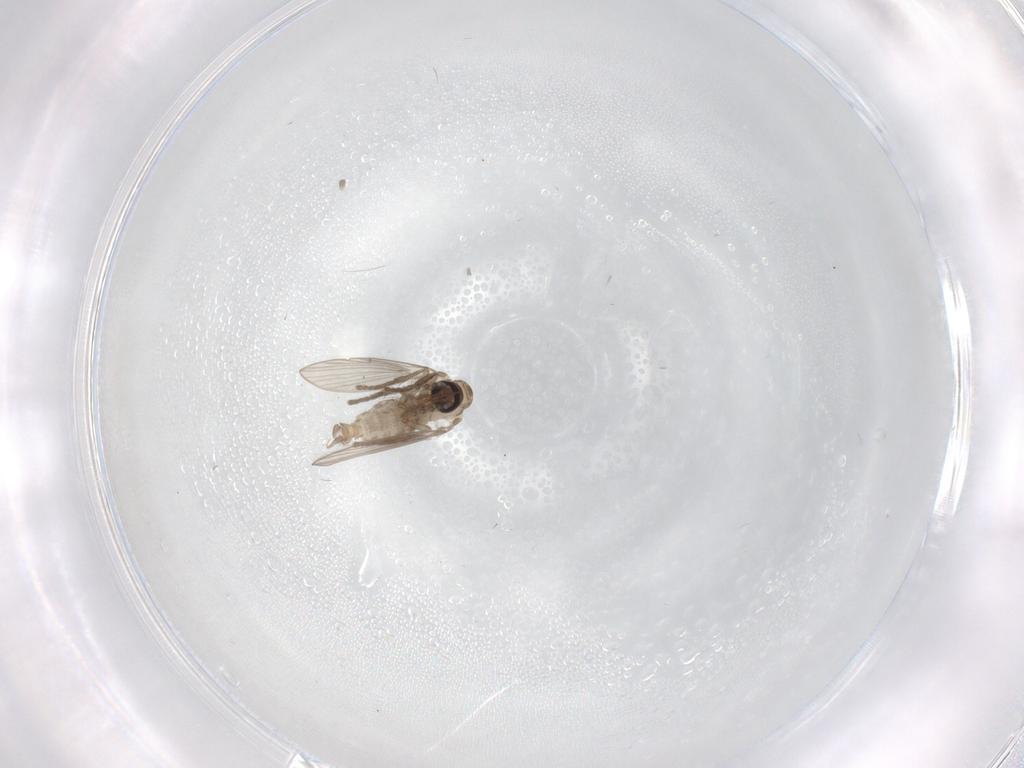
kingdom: Animalia
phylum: Arthropoda
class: Insecta
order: Diptera
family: Psychodidae
